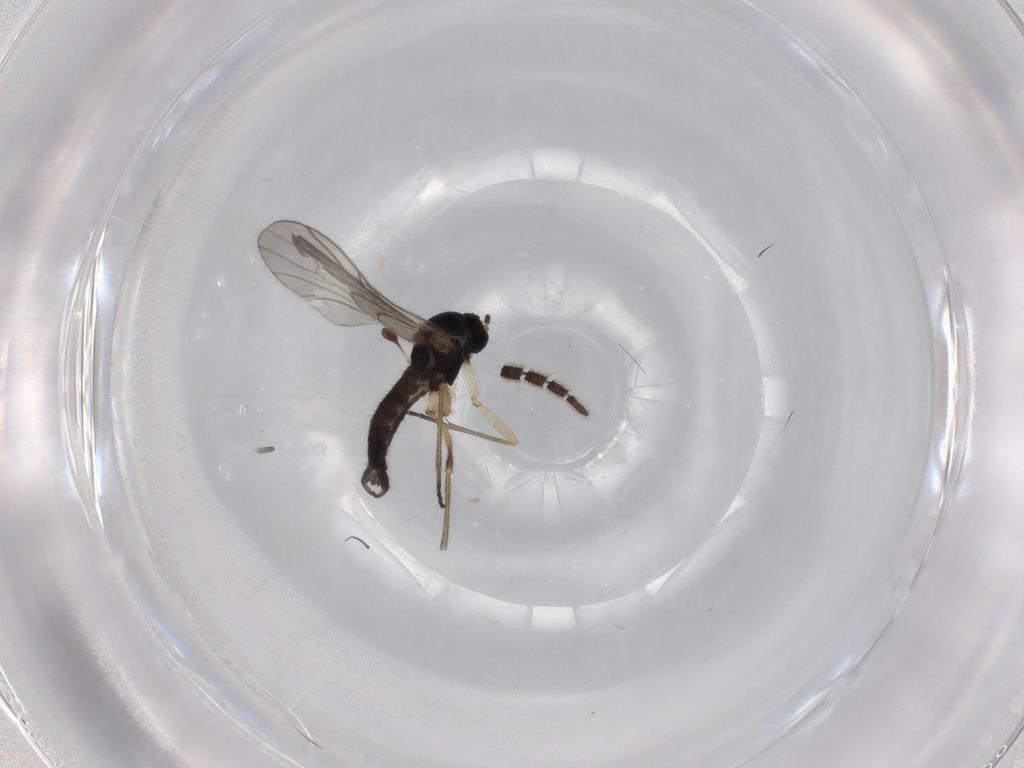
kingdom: Animalia
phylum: Arthropoda
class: Insecta
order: Diptera
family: Sciaridae
